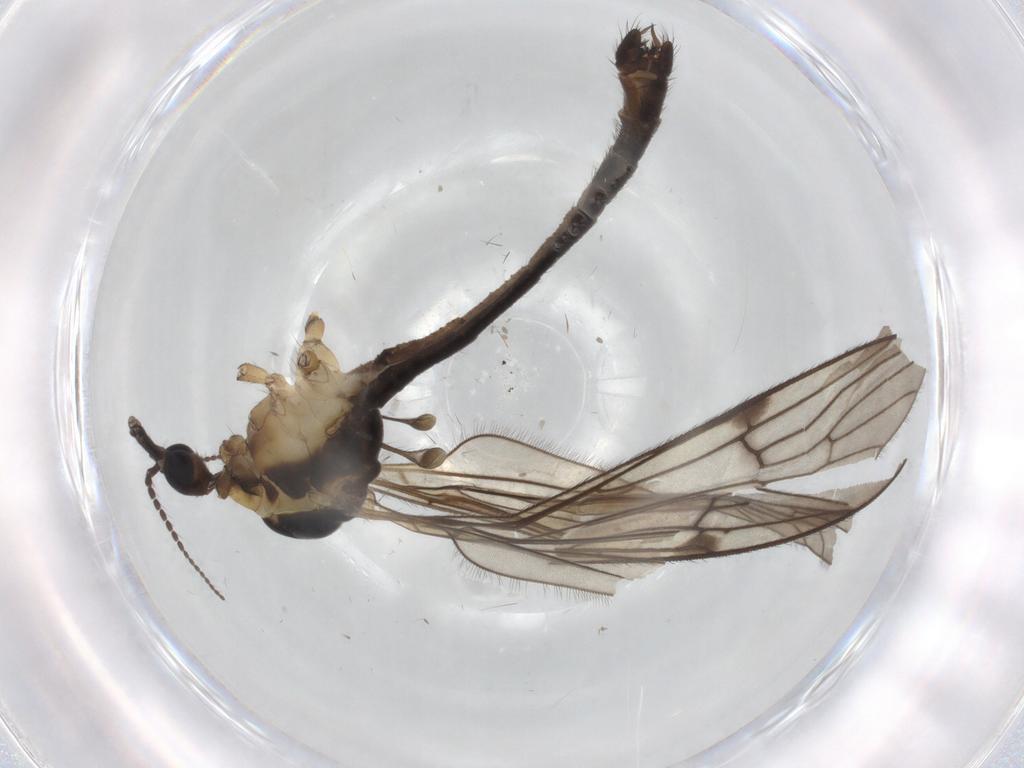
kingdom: Animalia
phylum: Arthropoda
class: Insecta
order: Diptera
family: Limoniidae
